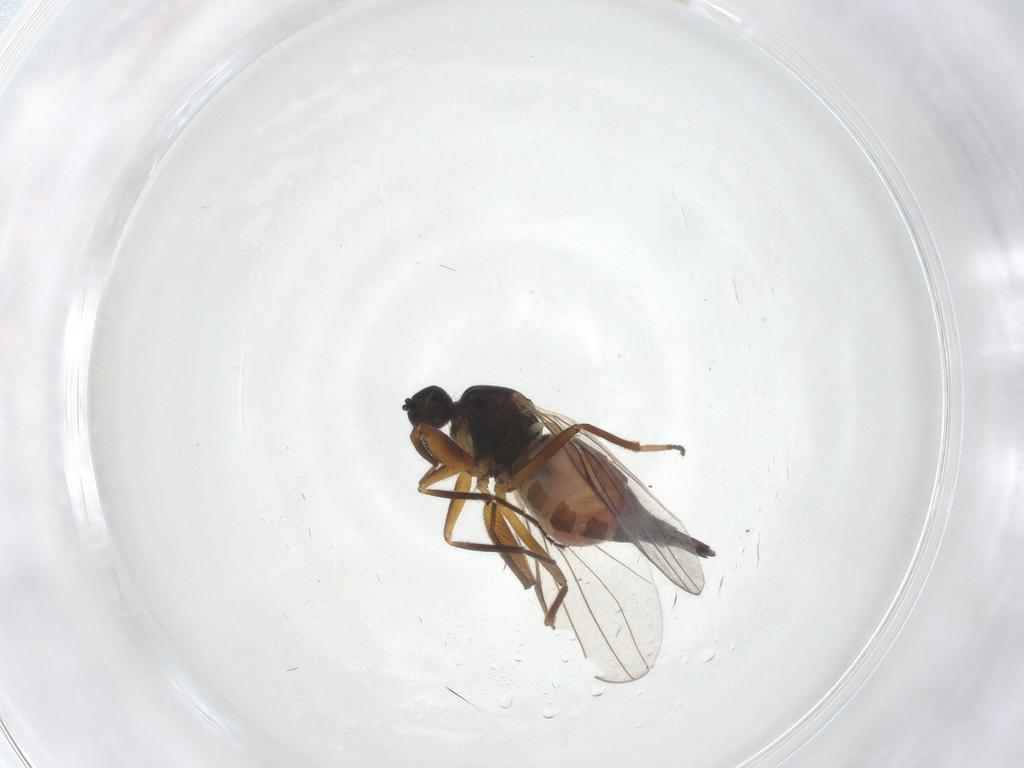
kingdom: Animalia
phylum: Arthropoda
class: Insecta
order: Diptera
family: Hybotidae
